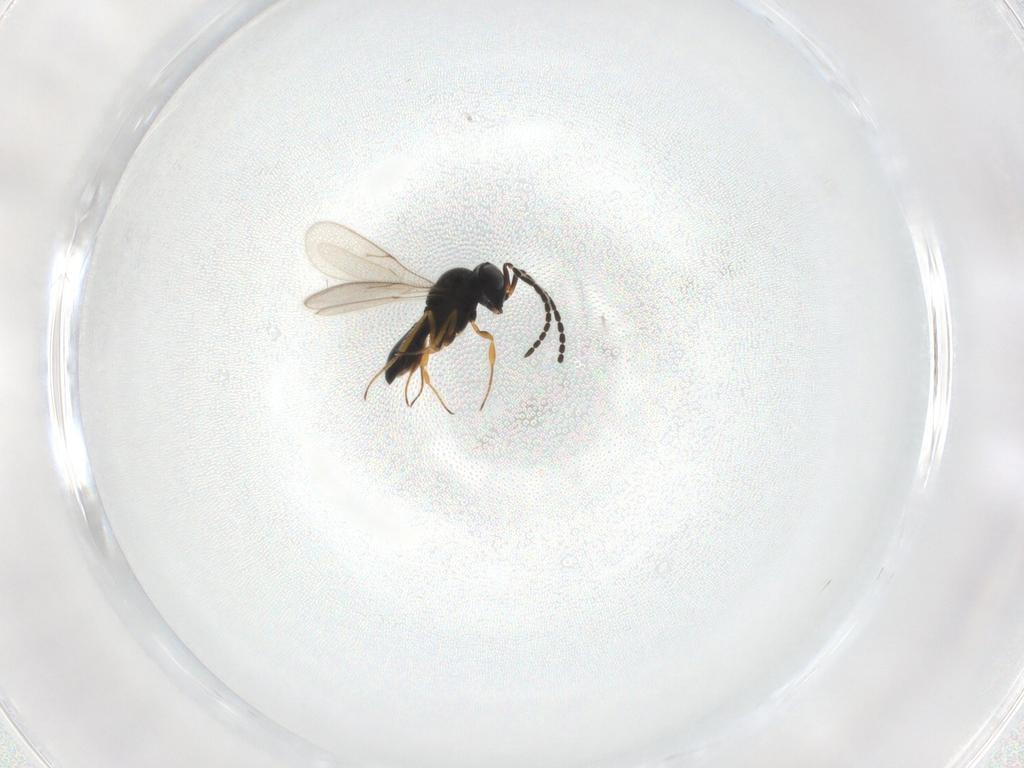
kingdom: Animalia
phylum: Arthropoda
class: Insecta
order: Hymenoptera
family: Scelionidae
